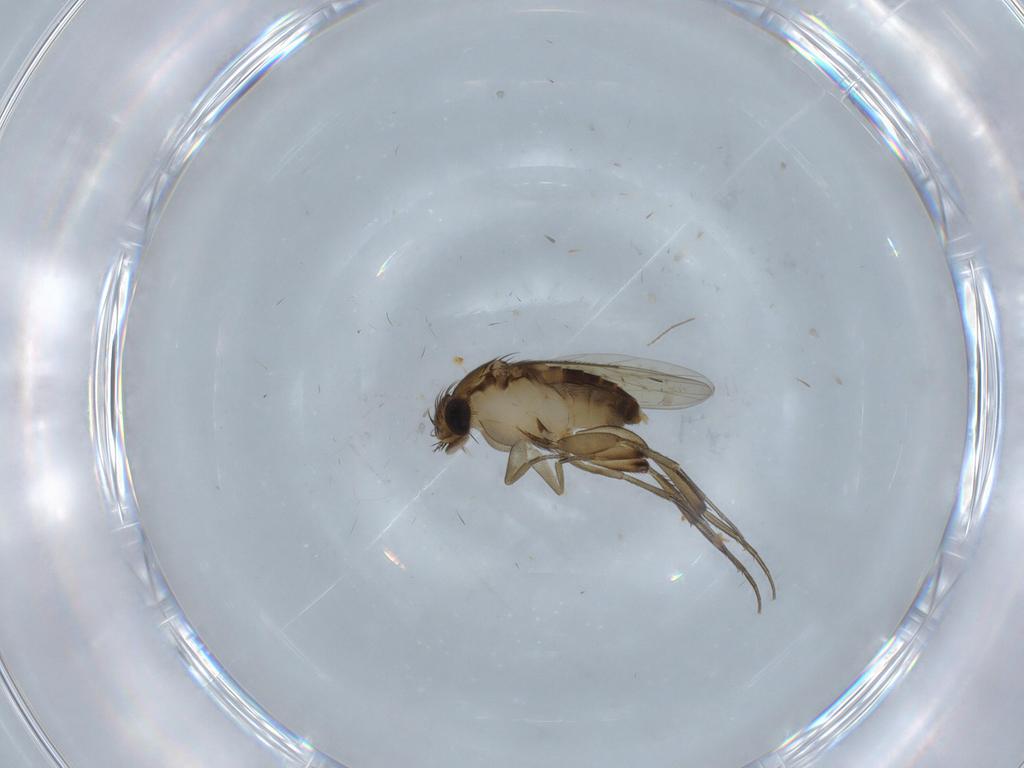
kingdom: Animalia
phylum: Arthropoda
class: Insecta
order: Diptera
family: Phoridae
